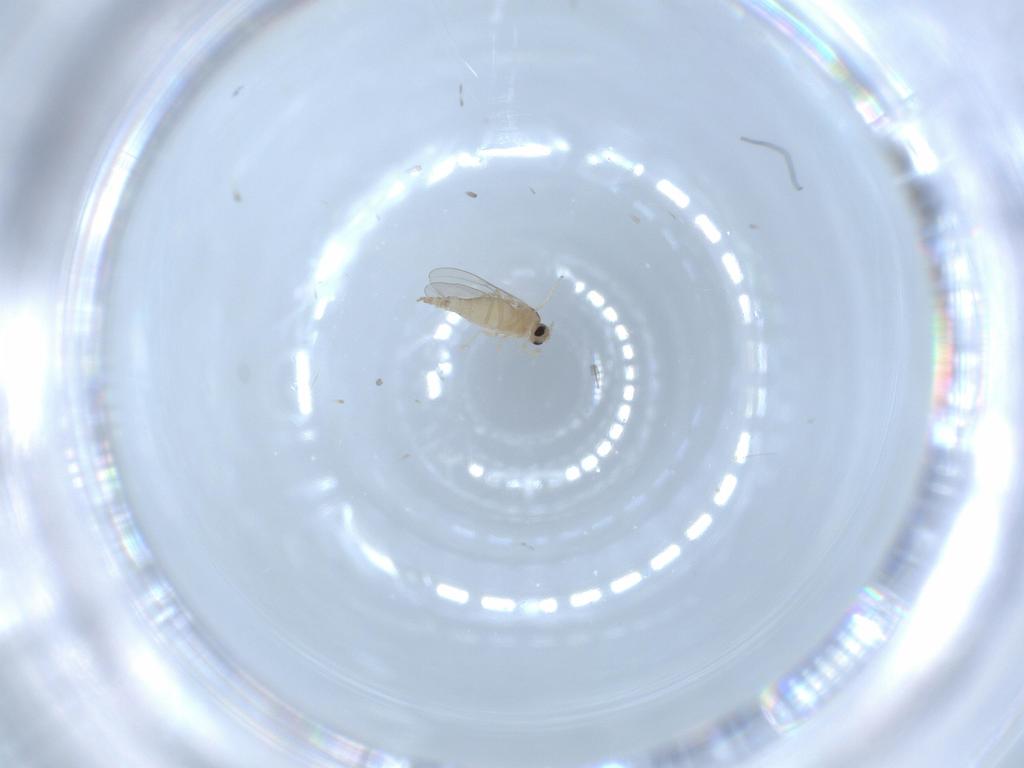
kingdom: Animalia
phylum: Arthropoda
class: Insecta
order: Diptera
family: Cecidomyiidae
